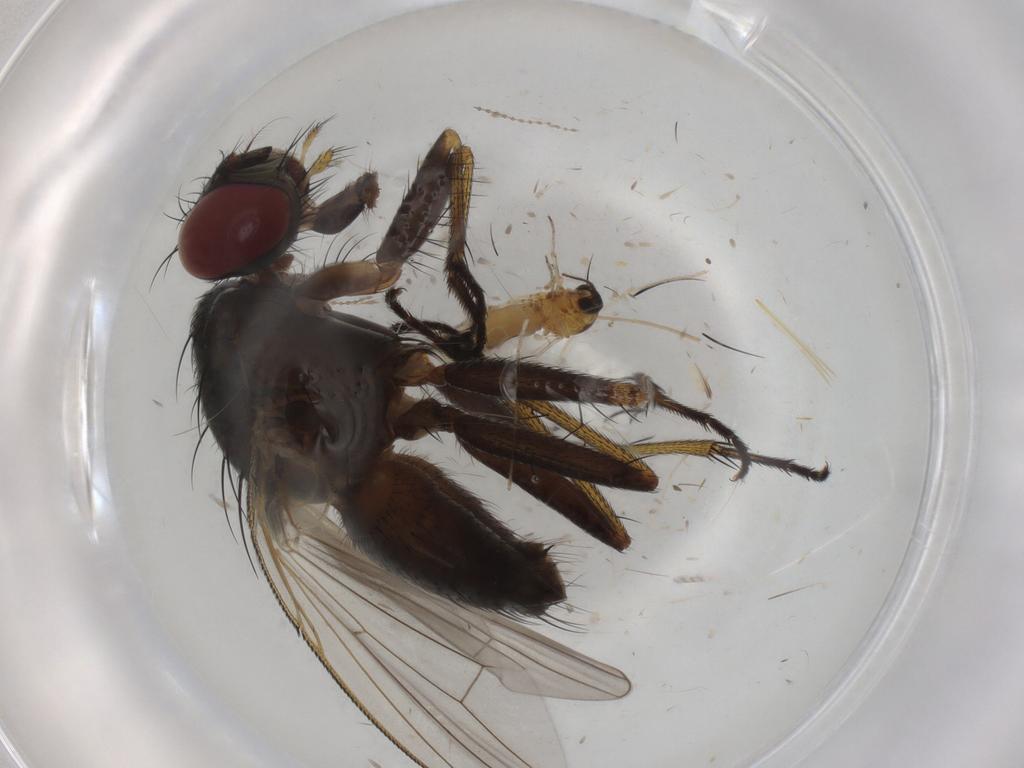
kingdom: Animalia
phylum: Arthropoda
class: Insecta
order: Diptera
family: Muscidae
